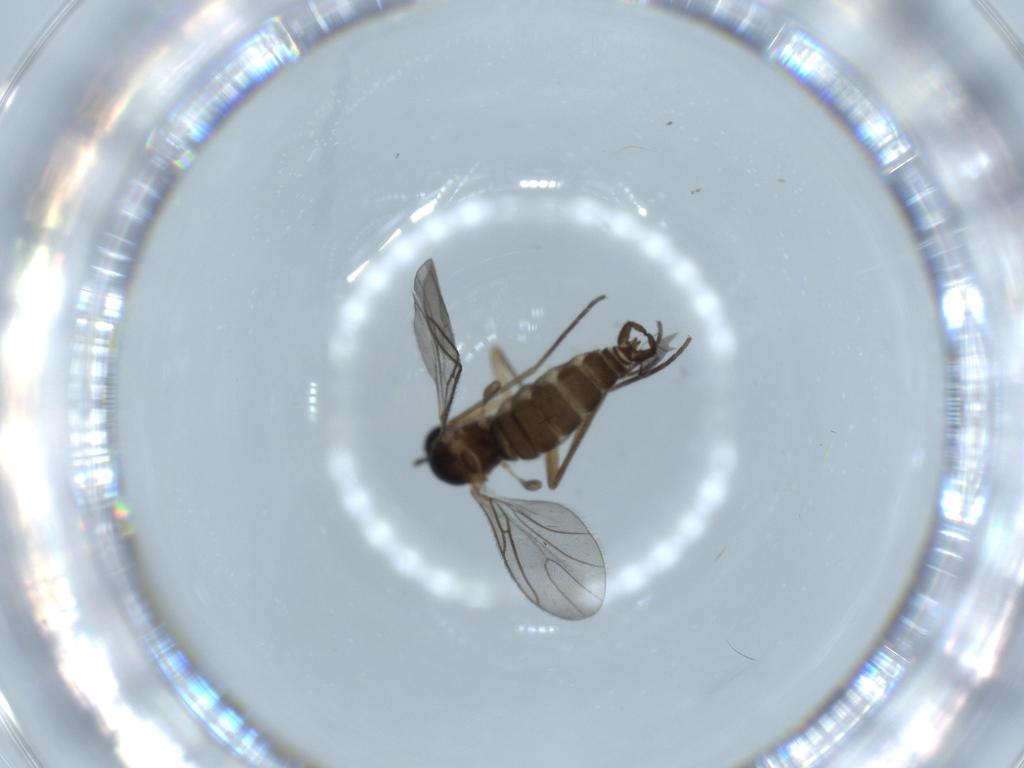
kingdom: Animalia
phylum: Arthropoda
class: Insecta
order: Diptera
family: Sciaridae
